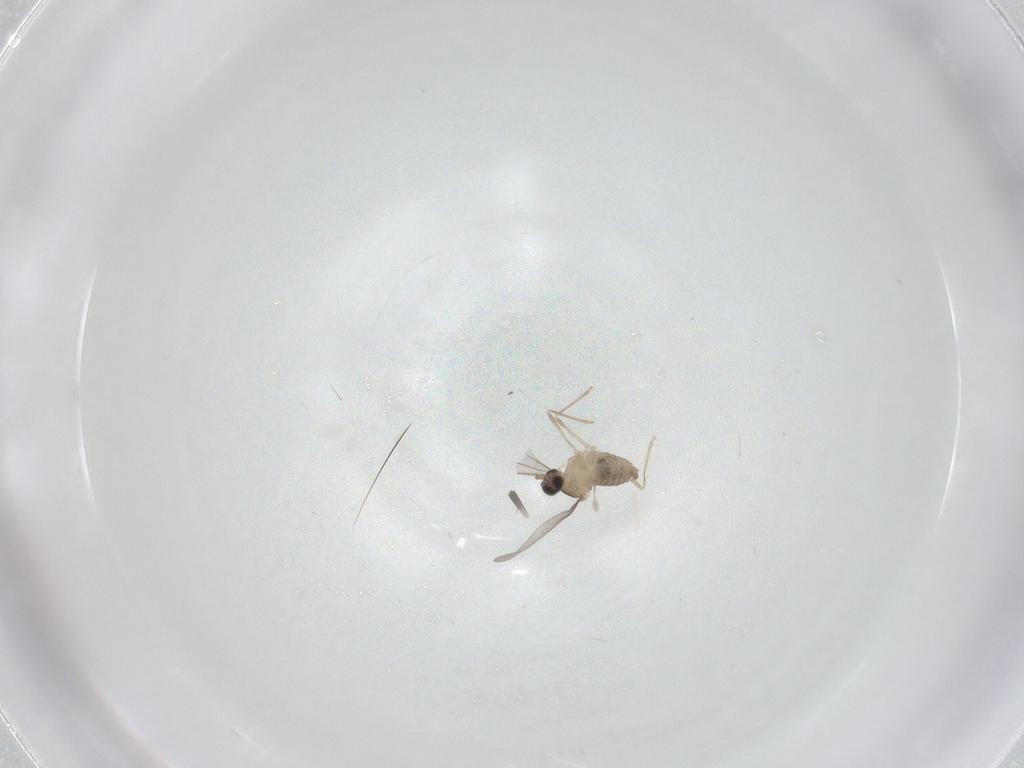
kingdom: Animalia
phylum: Arthropoda
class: Insecta
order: Diptera
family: Cecidomyiidae
